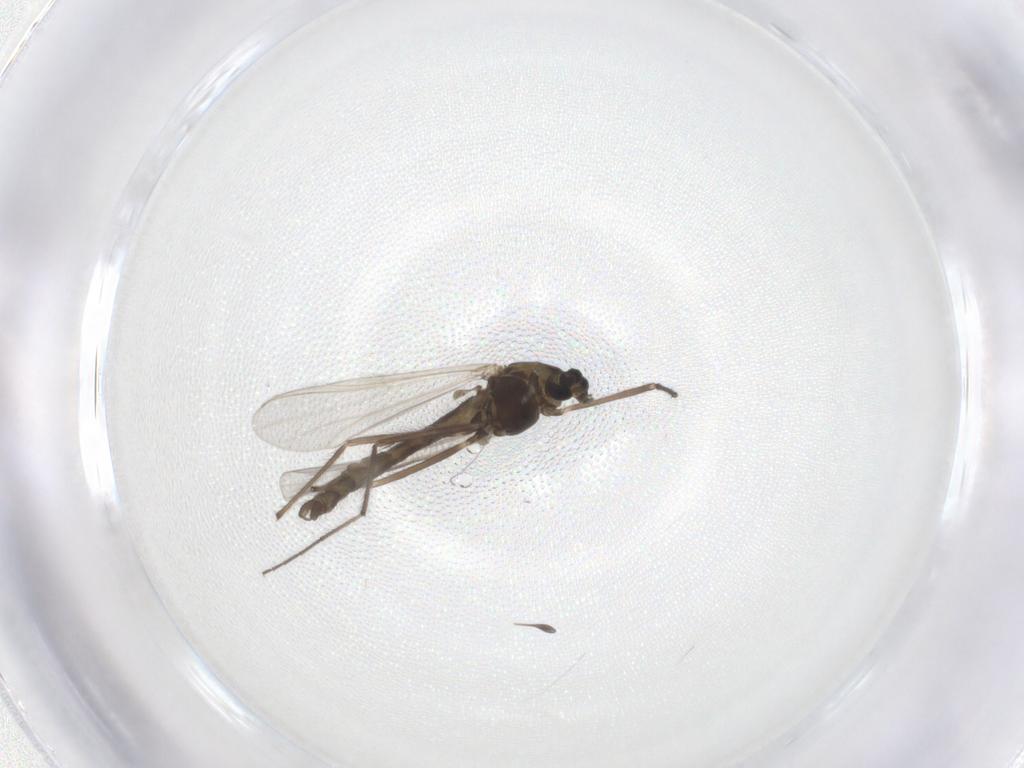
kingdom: Animalia
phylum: Arthropoda
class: Insecta
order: Diptera
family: Chironomidae
